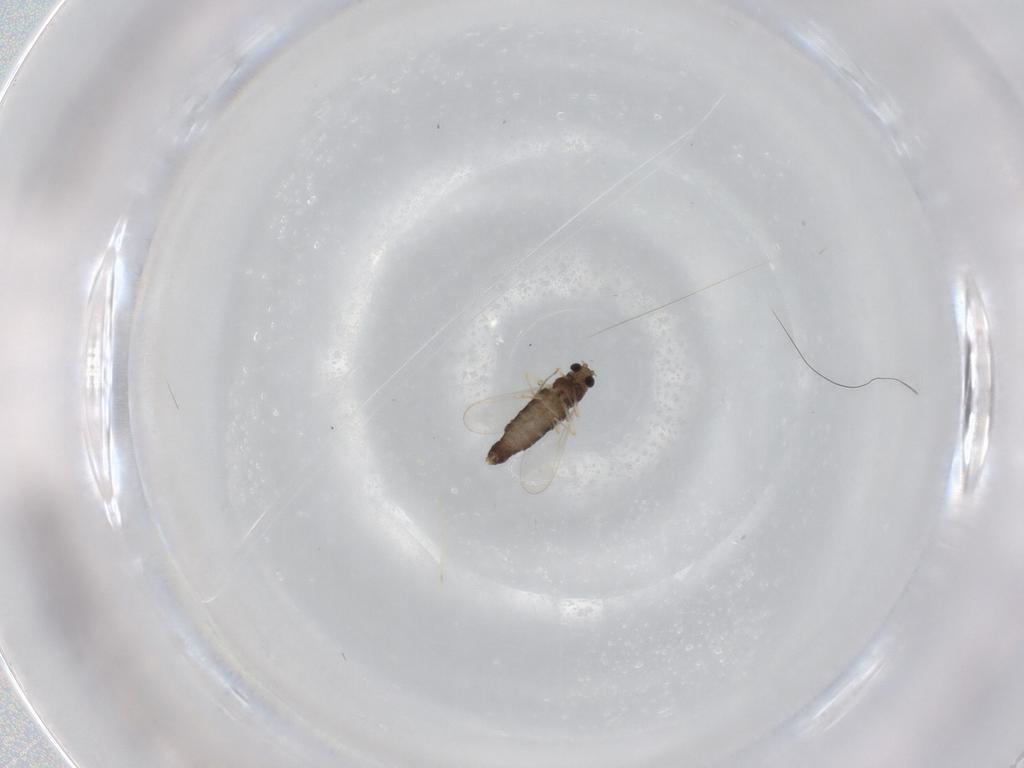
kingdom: Animalia
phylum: Arthropoda
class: Insecta
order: Diptera
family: Chironomidae
